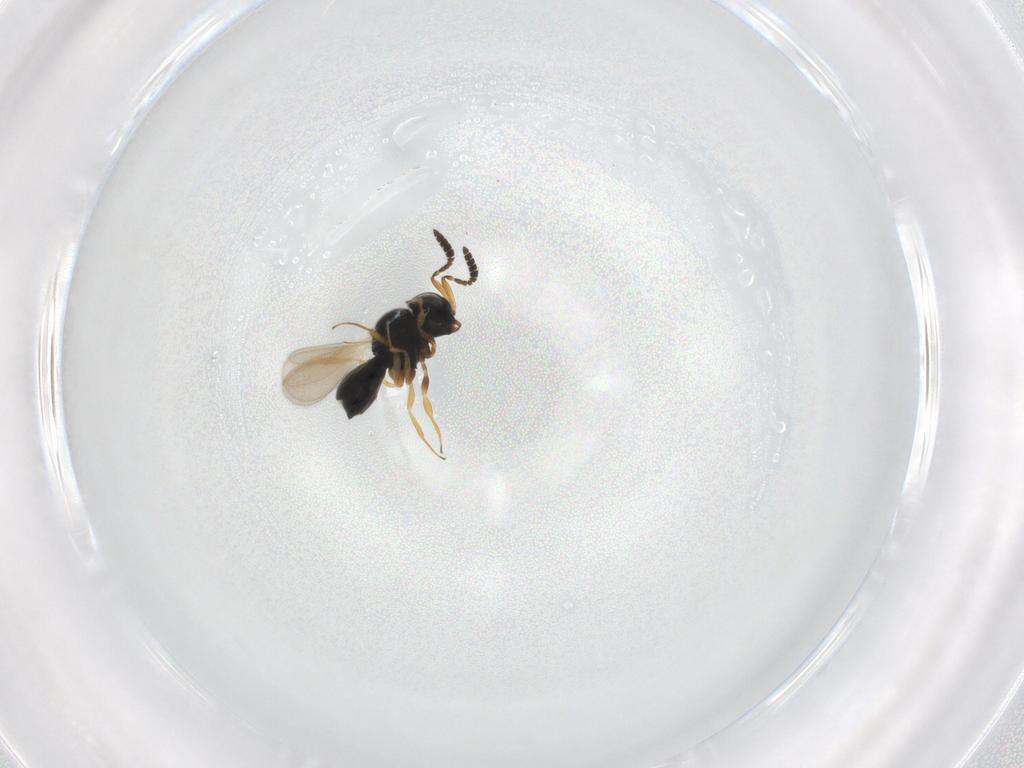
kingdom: Animalia
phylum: Arthropoda
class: Insecta
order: Hymenoptera
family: Scelionidae
